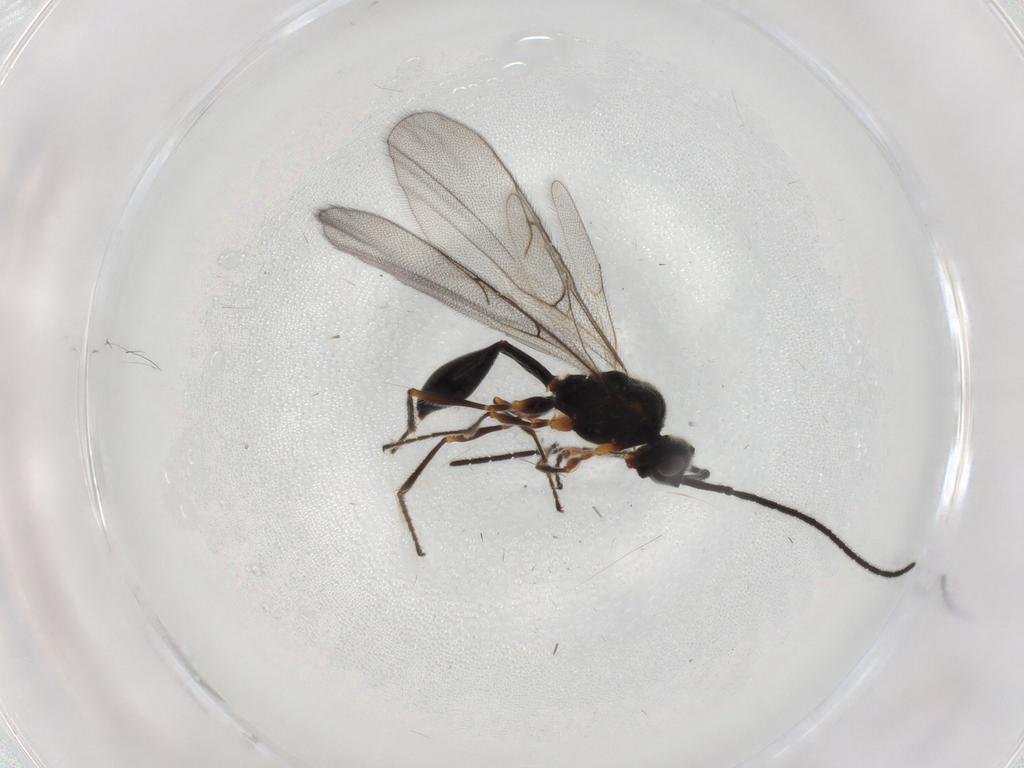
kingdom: Animalia
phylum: Arthropoda
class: Insecta
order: Hymenoptera
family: Diapriidae
